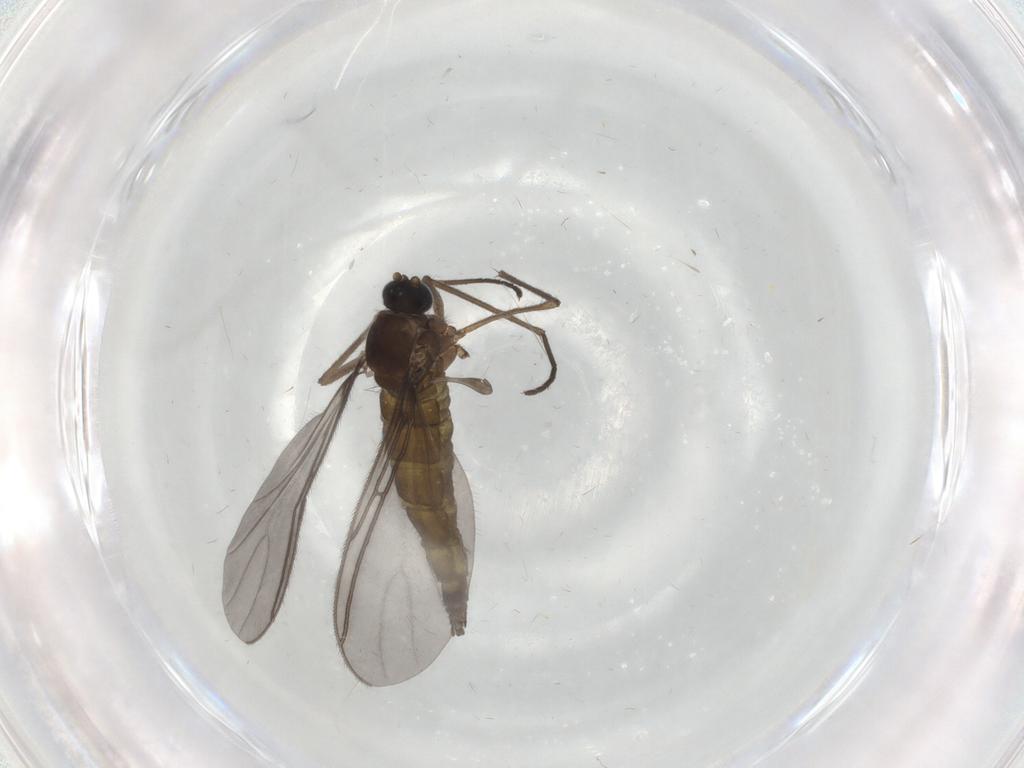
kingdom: Animalia
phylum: Arthropoda
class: Insecta
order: Diptera
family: Sciaridae
